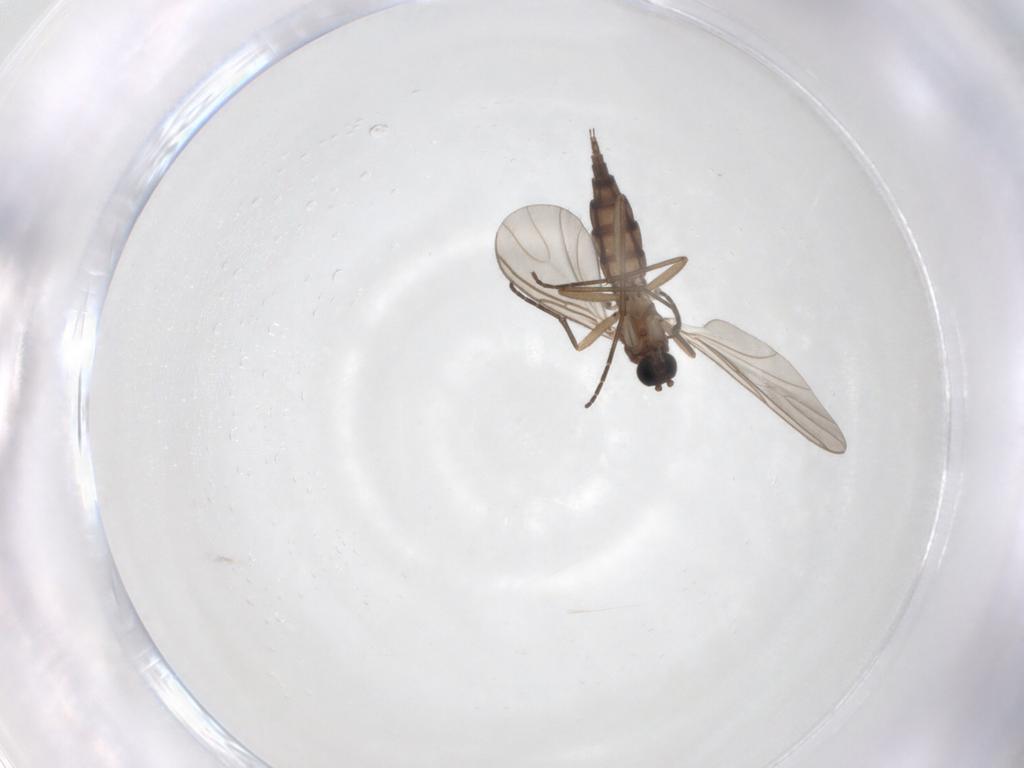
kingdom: Animalia
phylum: Arthropoda
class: Insecta
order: Diptera
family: Sciaridae
